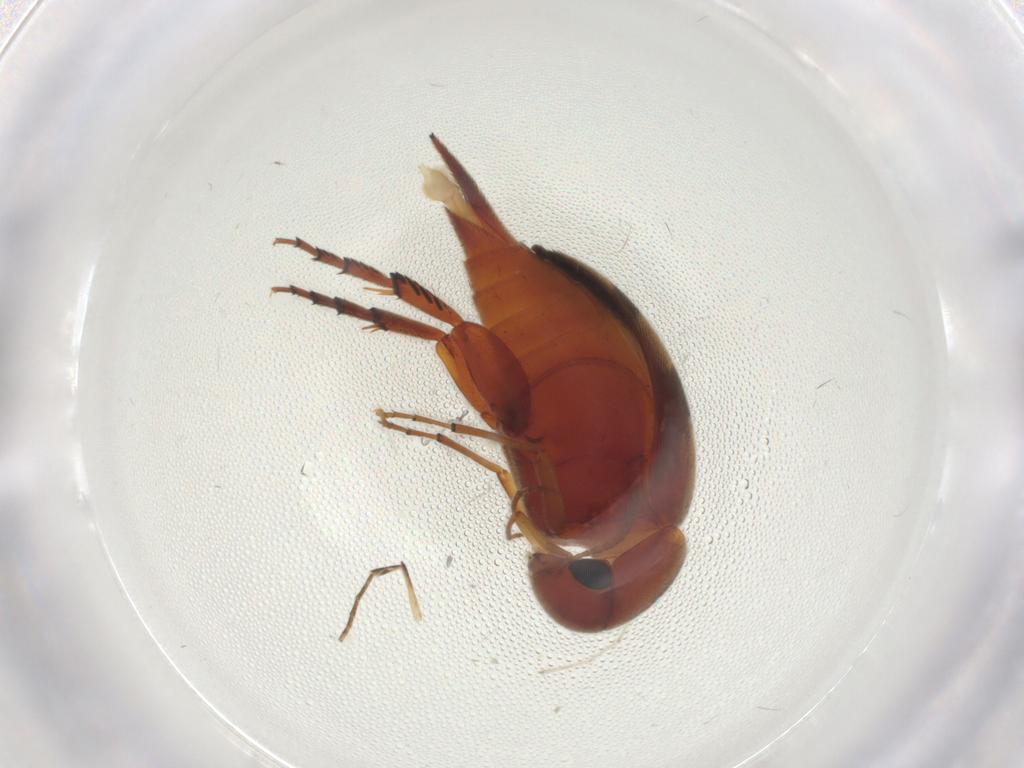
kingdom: Animalia
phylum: Arthropoda
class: Insecta
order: Coleoptera
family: Mordellidae
